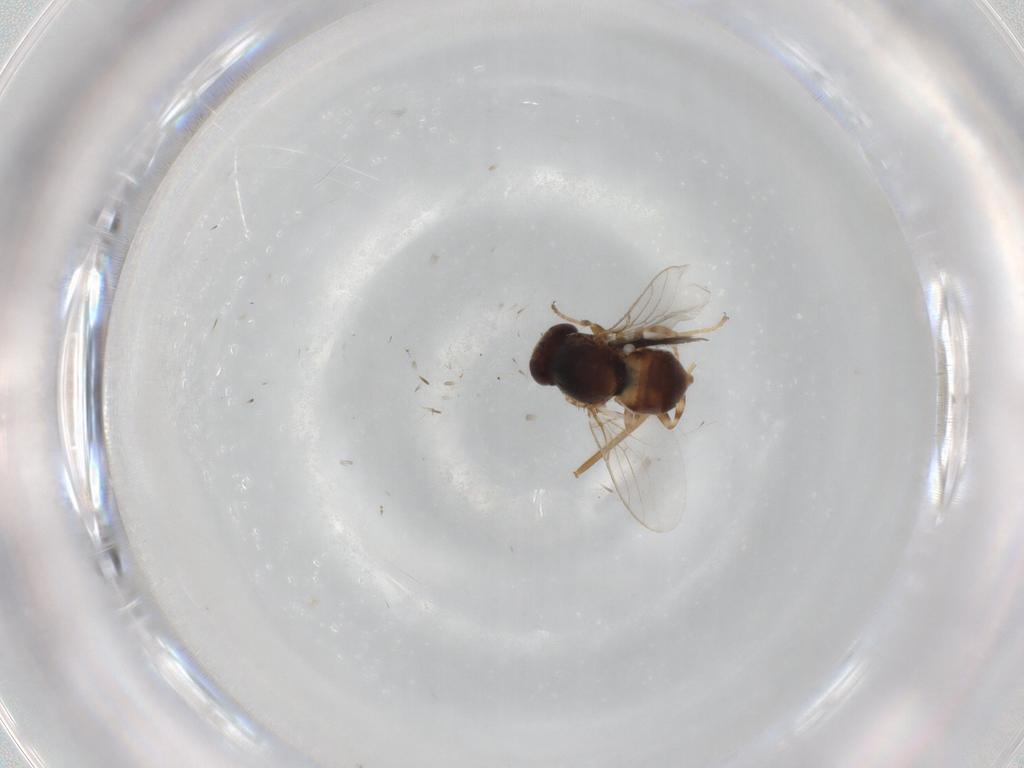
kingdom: Animalia
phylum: Arthropoda
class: Insecta
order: Diptera
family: Chloropidae
